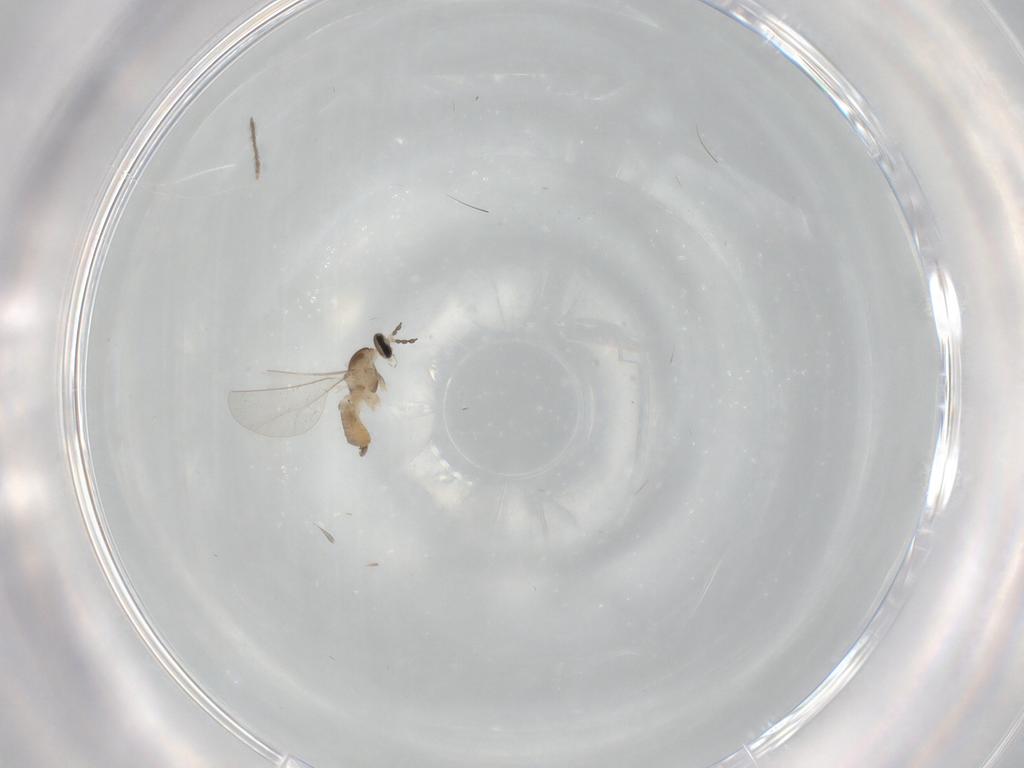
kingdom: Animalia
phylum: Arthropoda
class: Insecta
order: Diptera
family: Cecidomyiidae
